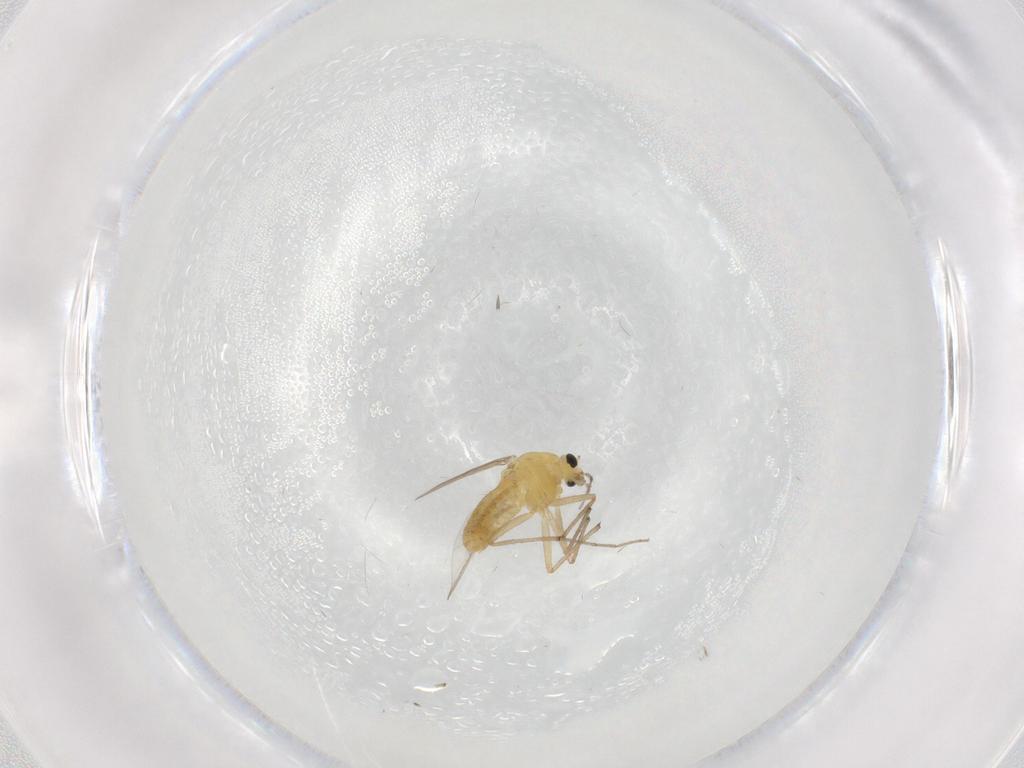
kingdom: Animalia
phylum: Arthropoda
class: Insecta
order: Diptera
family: Chironomidae
